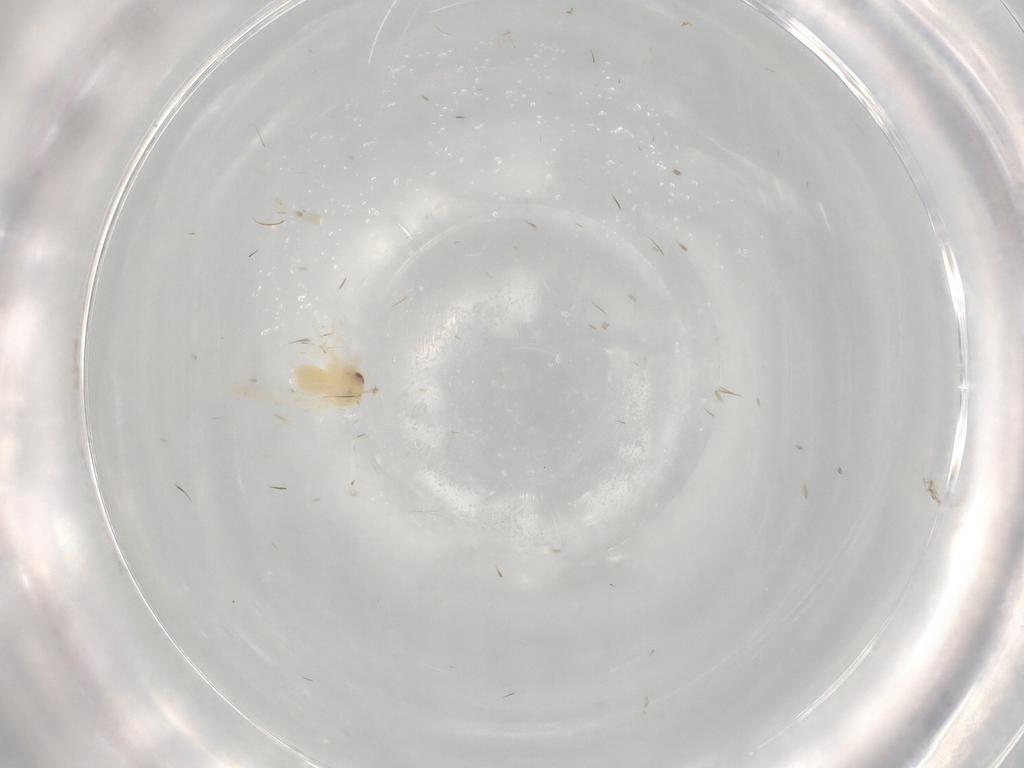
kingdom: Animalia
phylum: Arthropoda
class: Insecta
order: Hemiptera
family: Aleyrodidae
